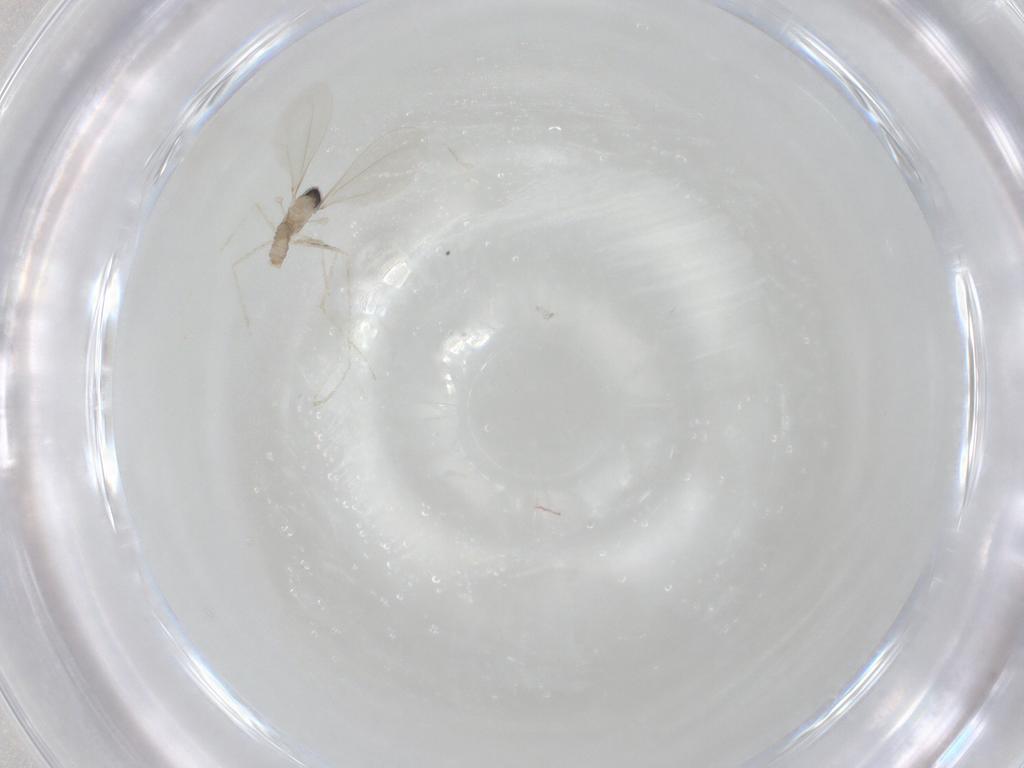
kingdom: Animalia
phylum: Arthropoda
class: Insecta
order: Diptera
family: Cecidomyiidae
